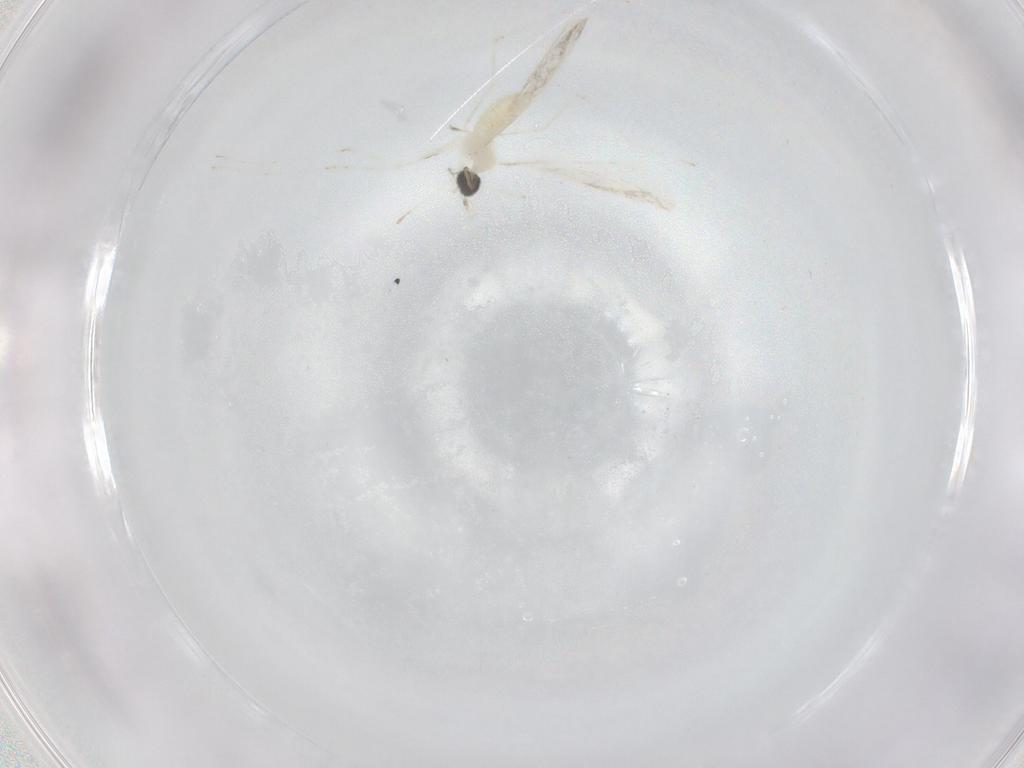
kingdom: Animalia
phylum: Arthropoda
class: Insecta
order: Diptera
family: Cecidomyiidae
